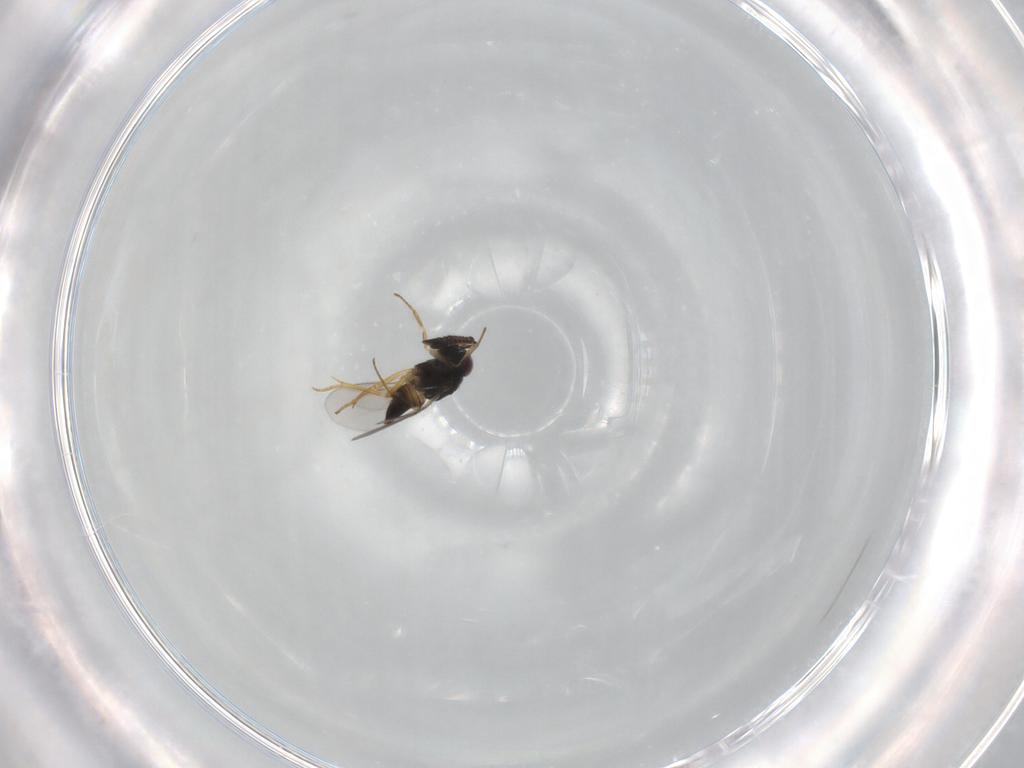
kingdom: Animalia
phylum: Arthropoda
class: Insecta
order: Hymenoptera
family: Encyrtidae
